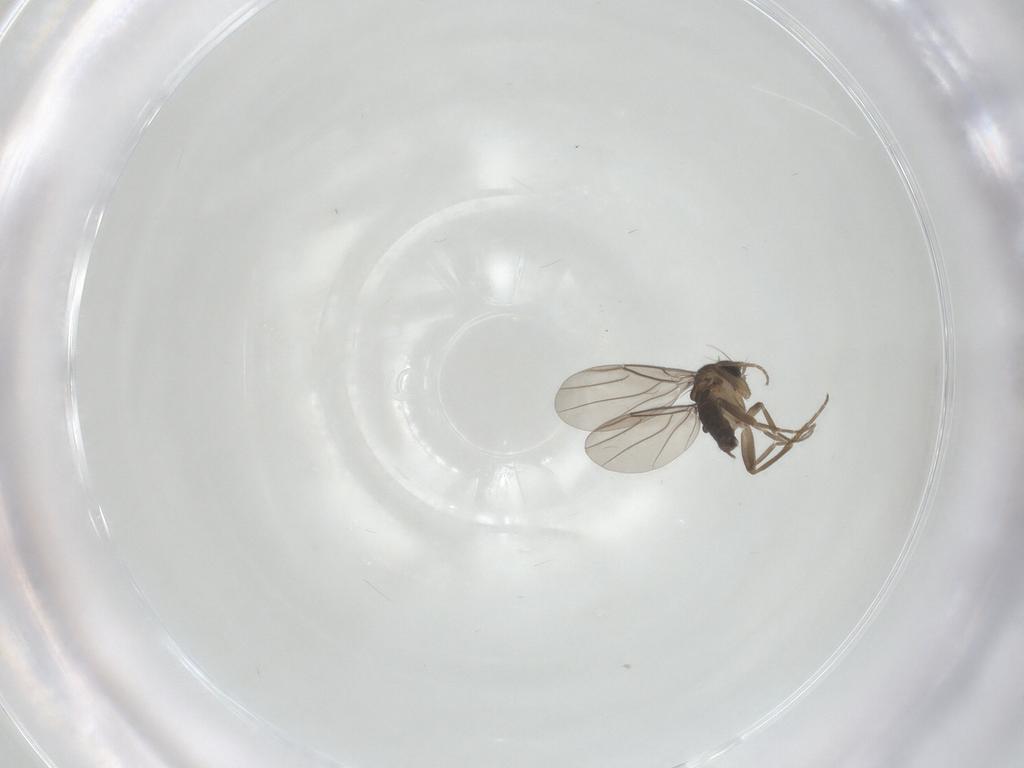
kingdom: Animalia
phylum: Arthropoda
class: Insecta
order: Diptera
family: Phoridae
